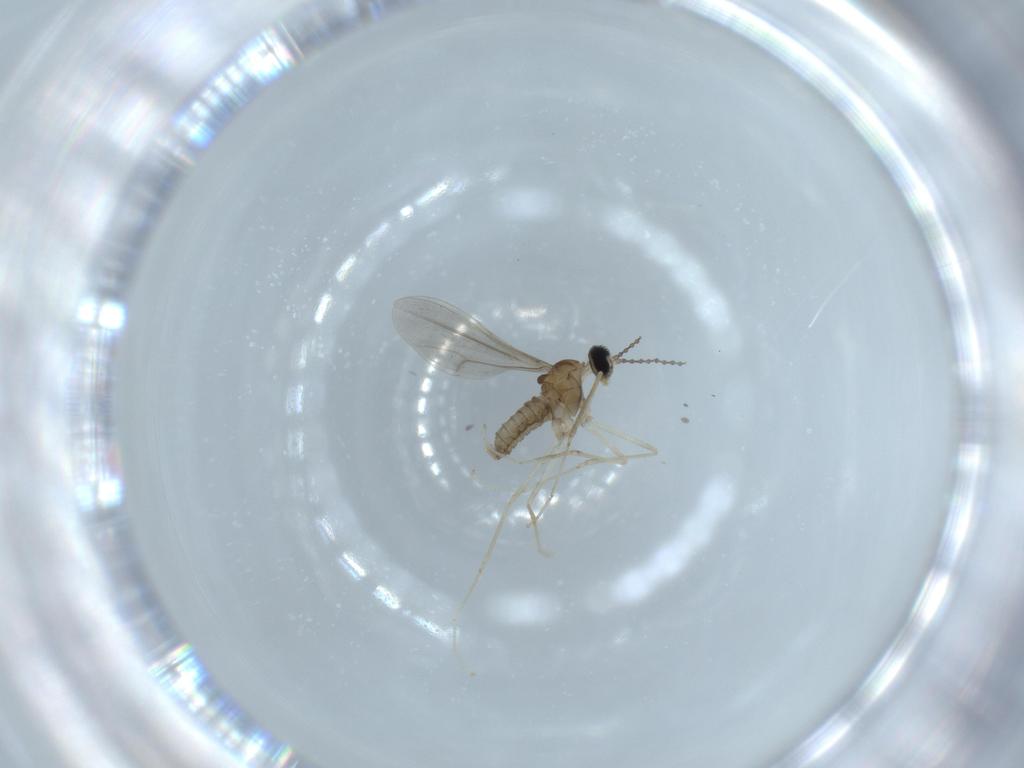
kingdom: Animalia
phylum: Arthropoda
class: Insecta
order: Diptera
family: Cecidomyiidae
